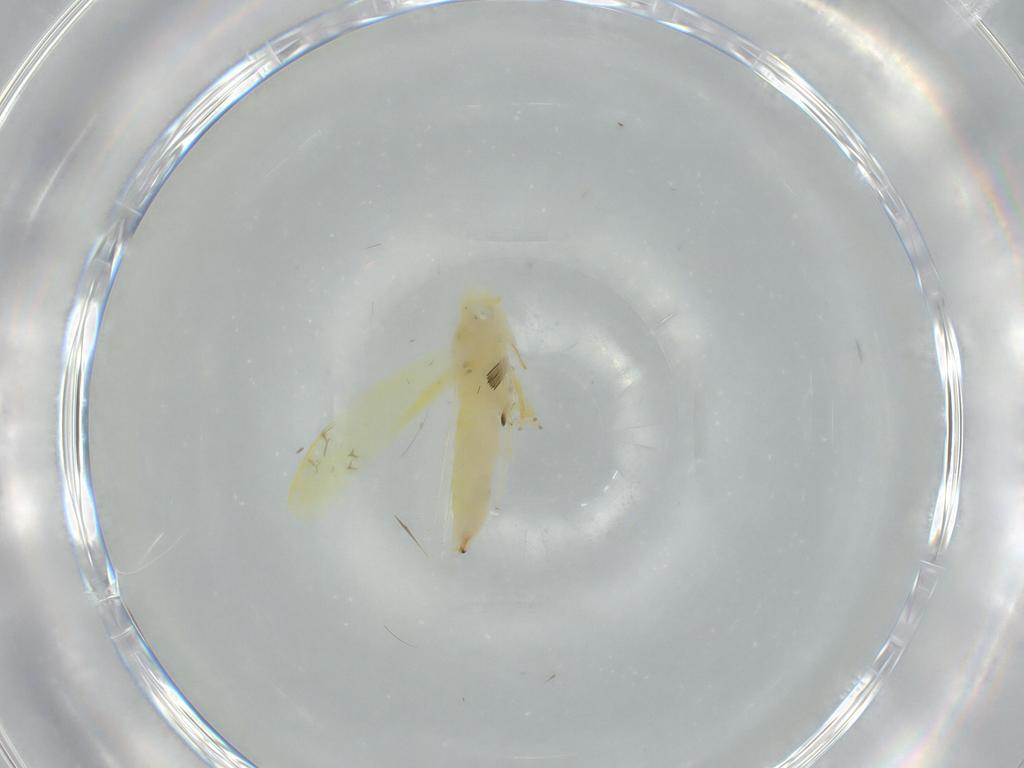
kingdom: Animalia
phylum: Arthropoda
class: Insecta
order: Hemiptera
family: Cicadellidae
